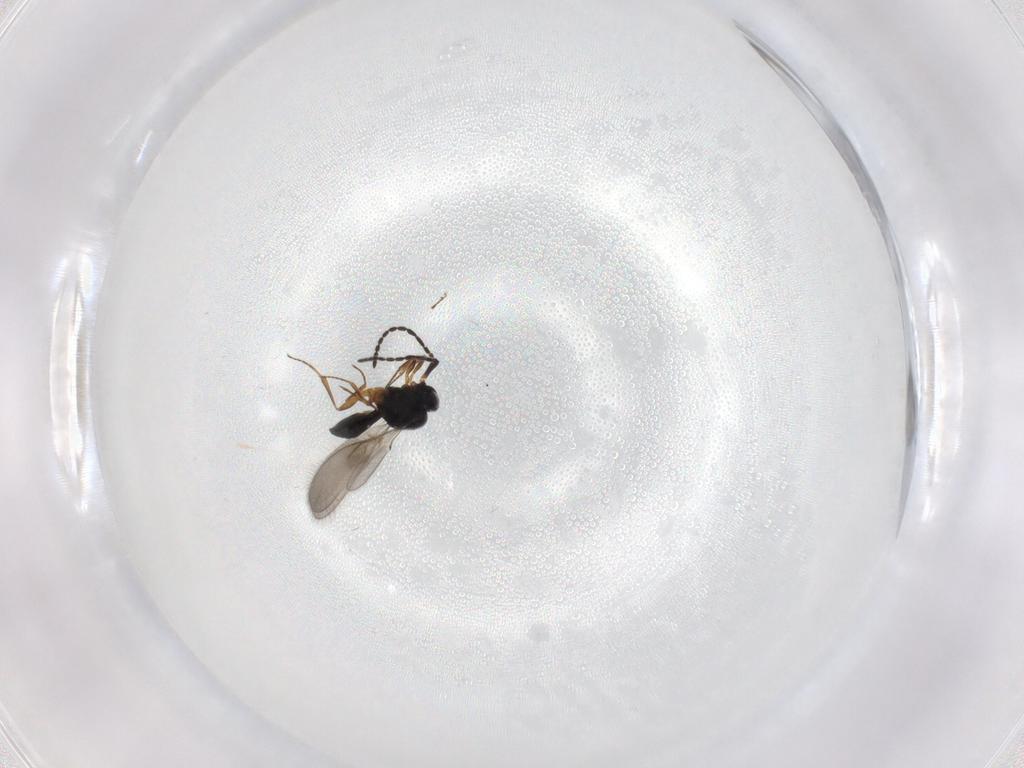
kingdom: Animalia
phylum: Arthropoda
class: Insecta
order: Hymenoptera
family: Scelionidae
